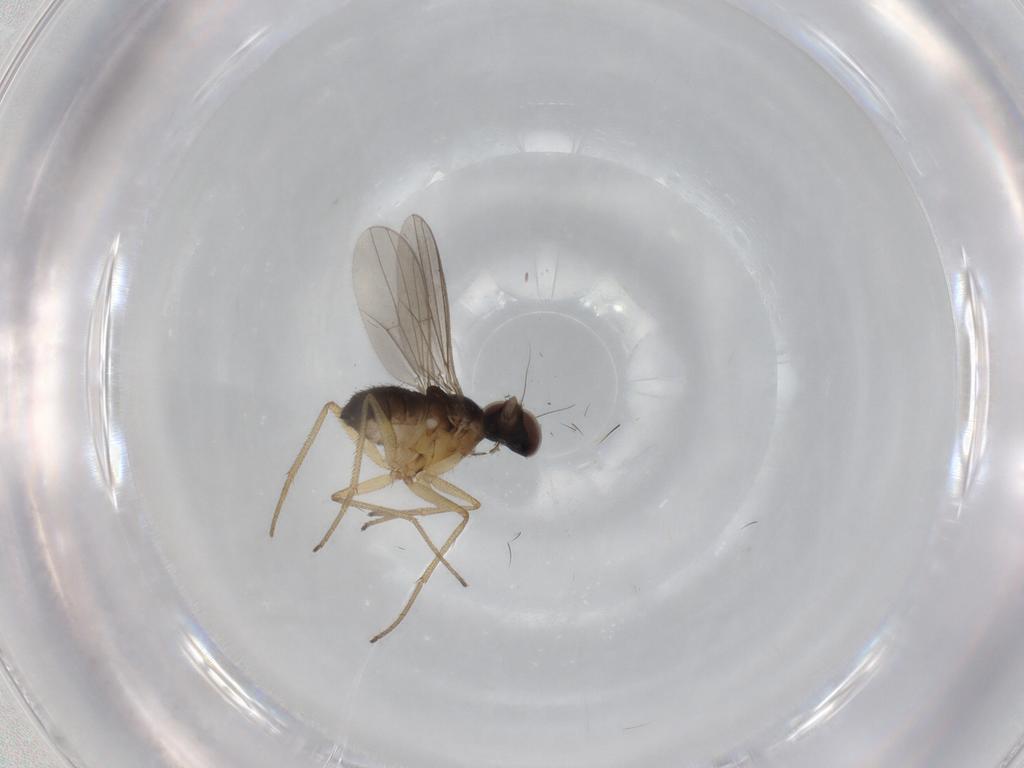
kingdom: Animalia
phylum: Arthropoda
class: Insecta
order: Diptera
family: Dolichopodidae
